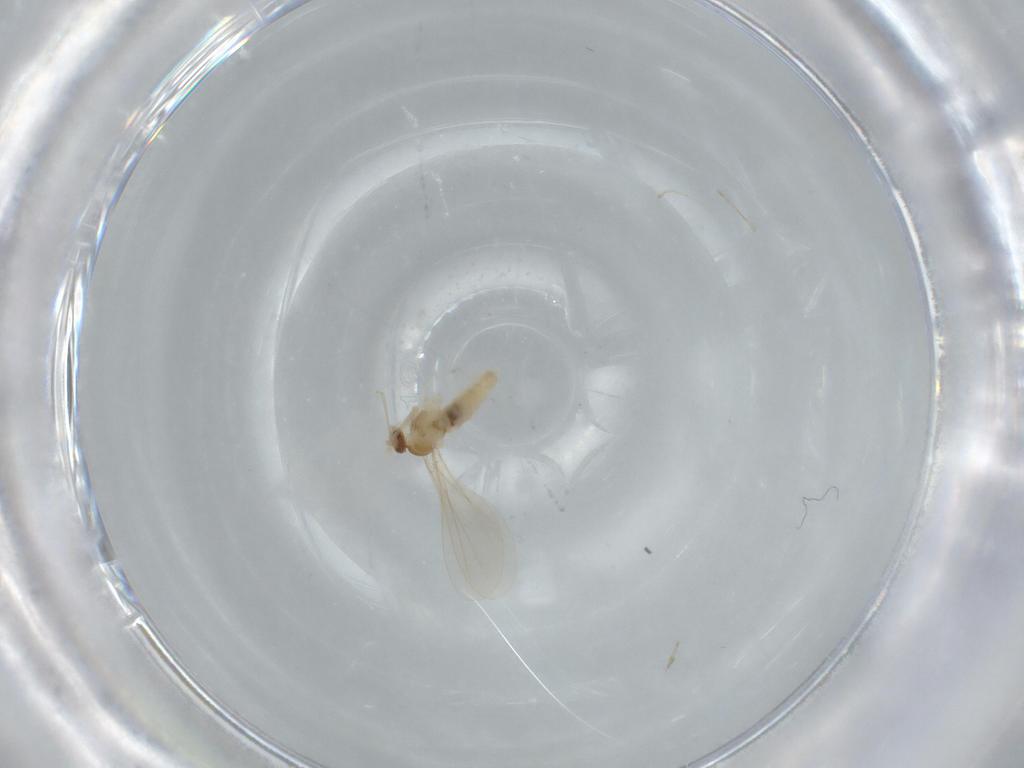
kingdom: Animalia
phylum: Arthropoda
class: Insecta
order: Diptera
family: Cecidomyiidae
